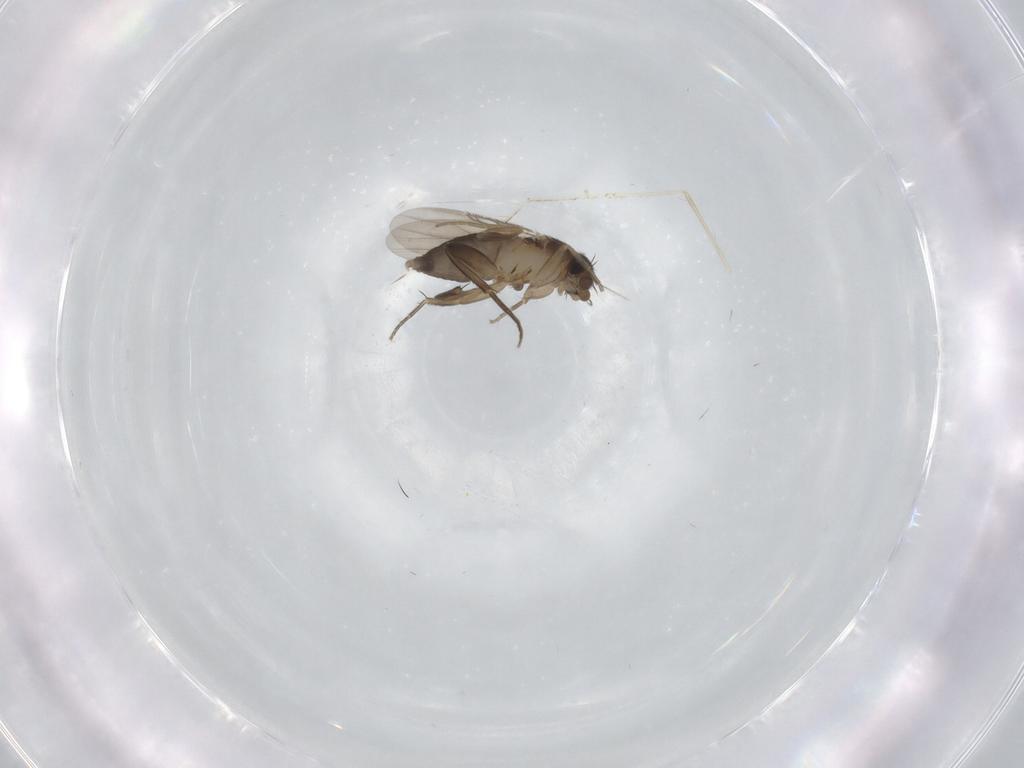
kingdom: Animalia
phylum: Arthropoda
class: Insecta
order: Diptera
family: Phoridae
